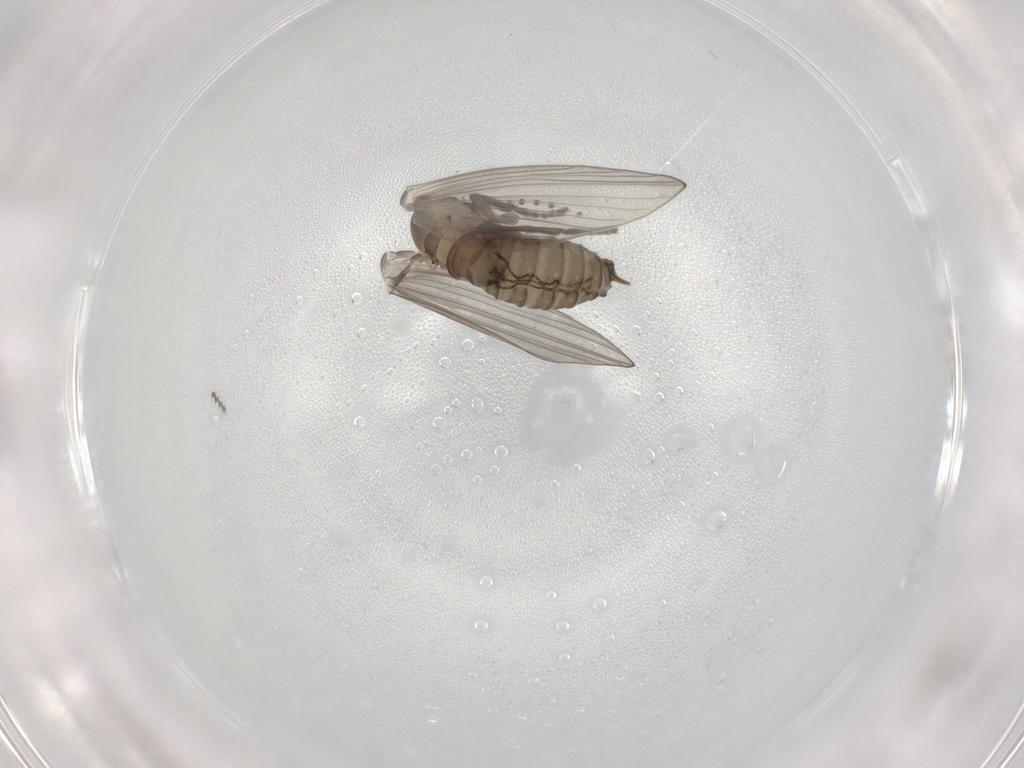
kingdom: Animalia
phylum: Arthropoda
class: Insecta
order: Diptera
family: Psychodidae
